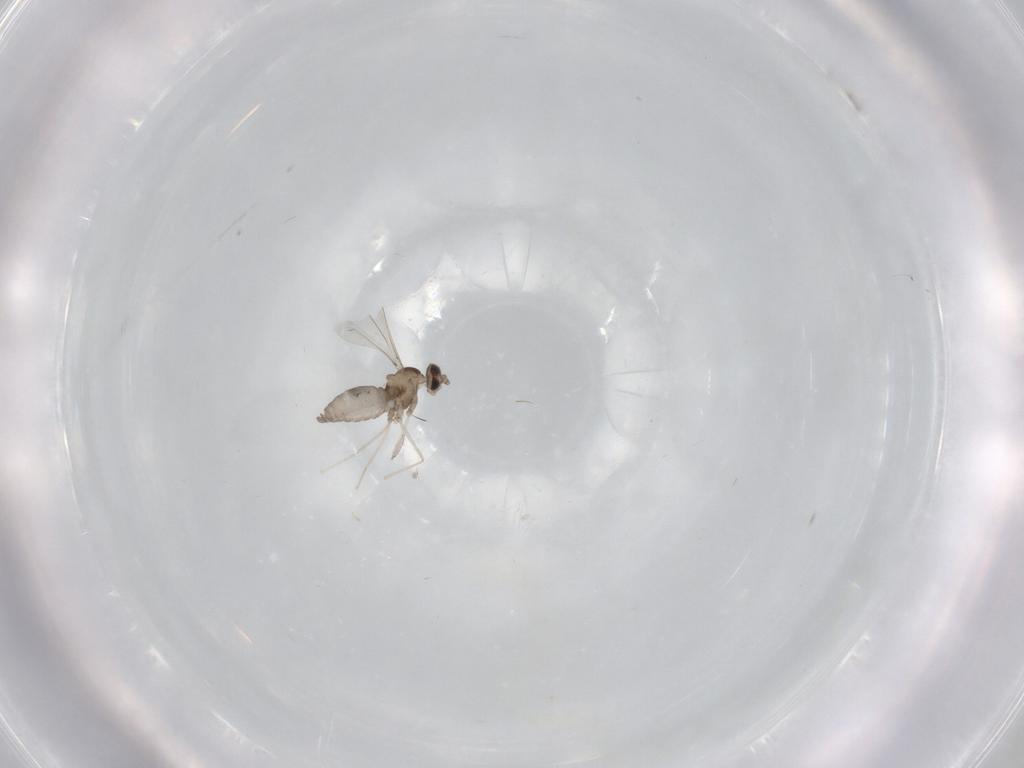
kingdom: Animalia
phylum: Arthropoda
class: Insecta
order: Diptera
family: Cecidomyiidae
